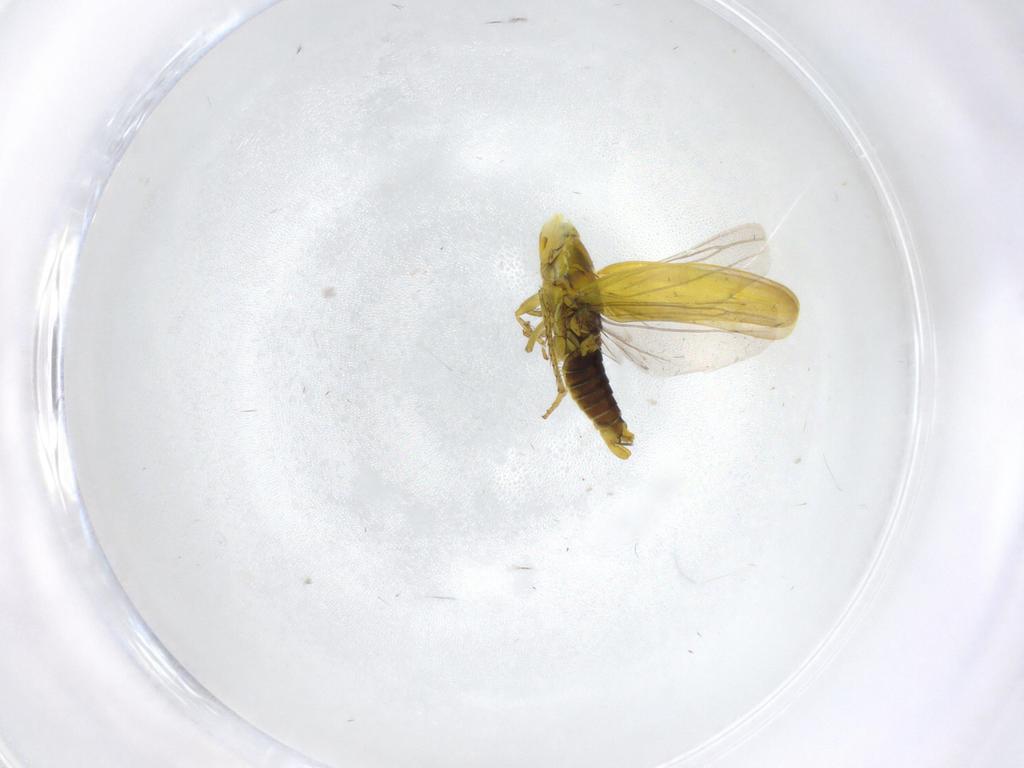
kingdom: Animalia
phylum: Arthropoda
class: Insecta
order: Hemiptera
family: Cicadellidae
